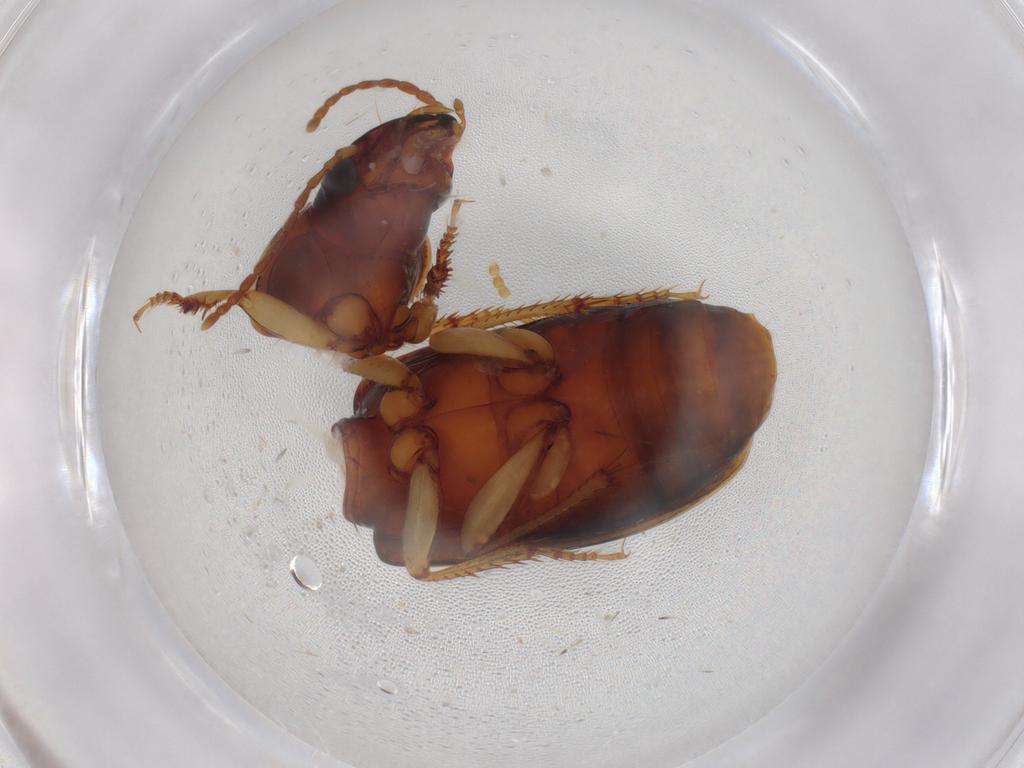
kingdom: Animalia
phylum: Arthropoda
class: Insecta
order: Coleoptera
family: Carabidae
